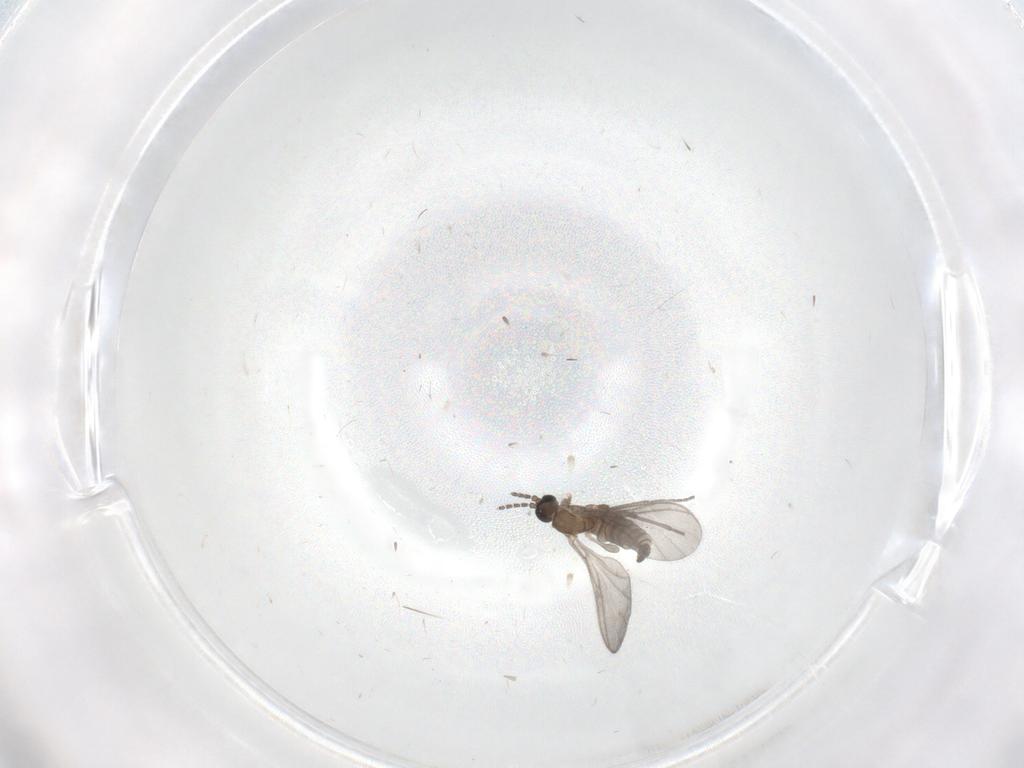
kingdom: Animalia
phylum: Arthropoda
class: Insecta
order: Diptera
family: Sciaridae
